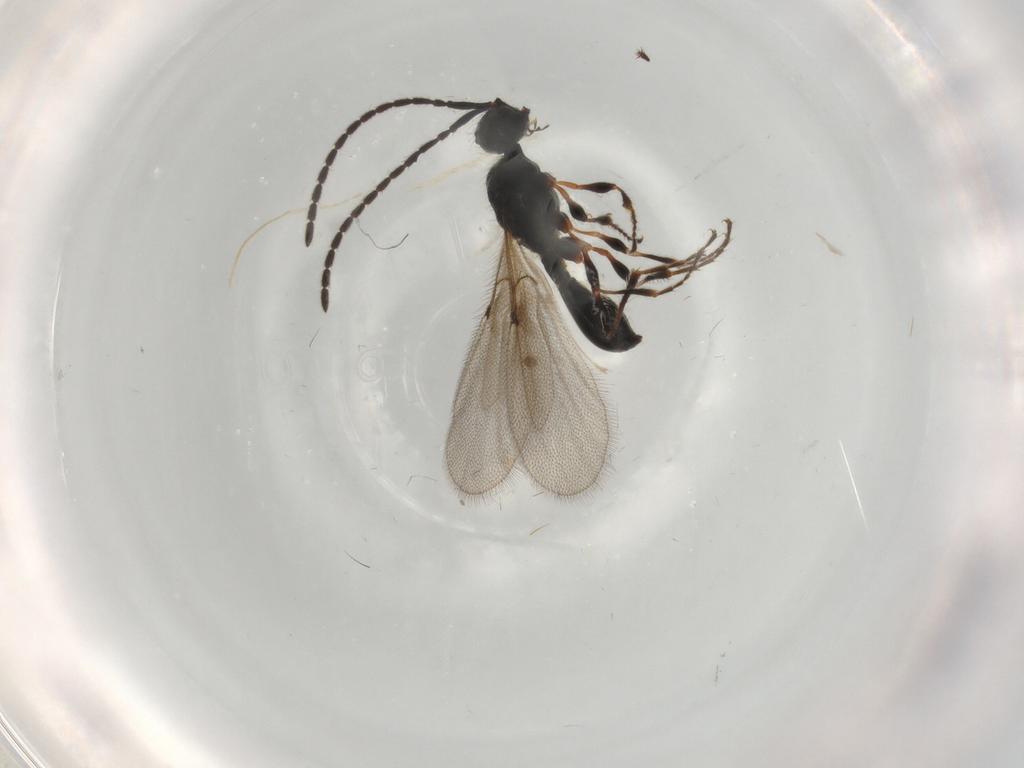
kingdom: Animalia
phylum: Arthropoda
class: Insecta
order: Hymenoptera
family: Diapriidae
